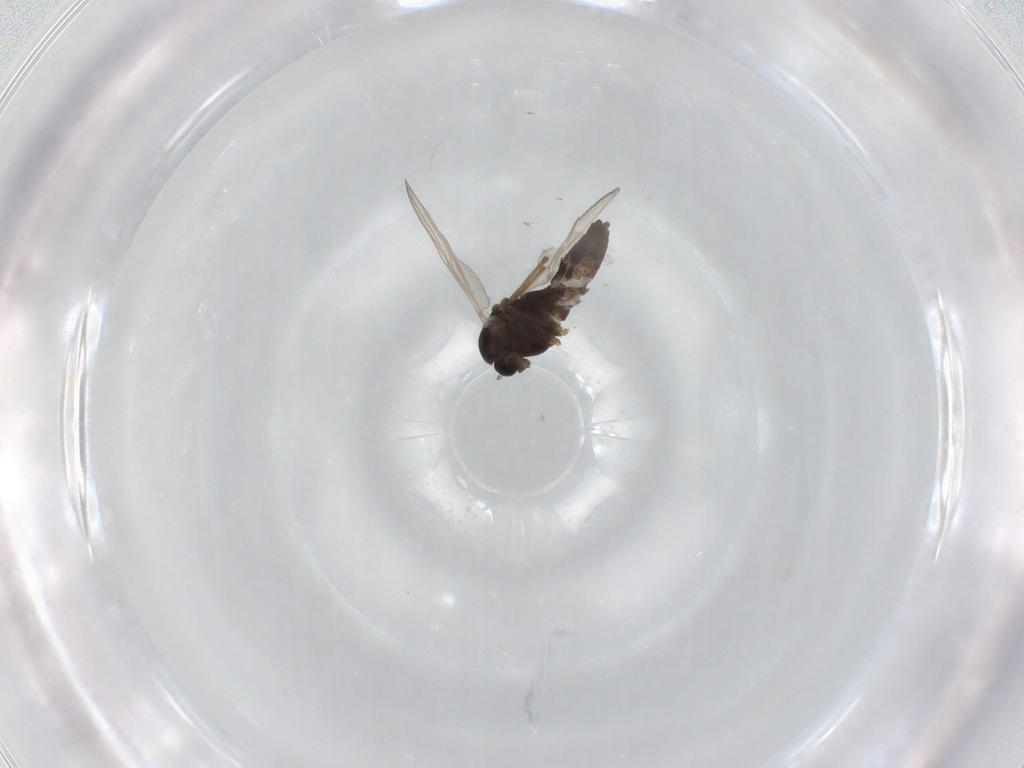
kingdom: Animalia
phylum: Arthropoda
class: Insecta
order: Diptera
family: Chironomidae
